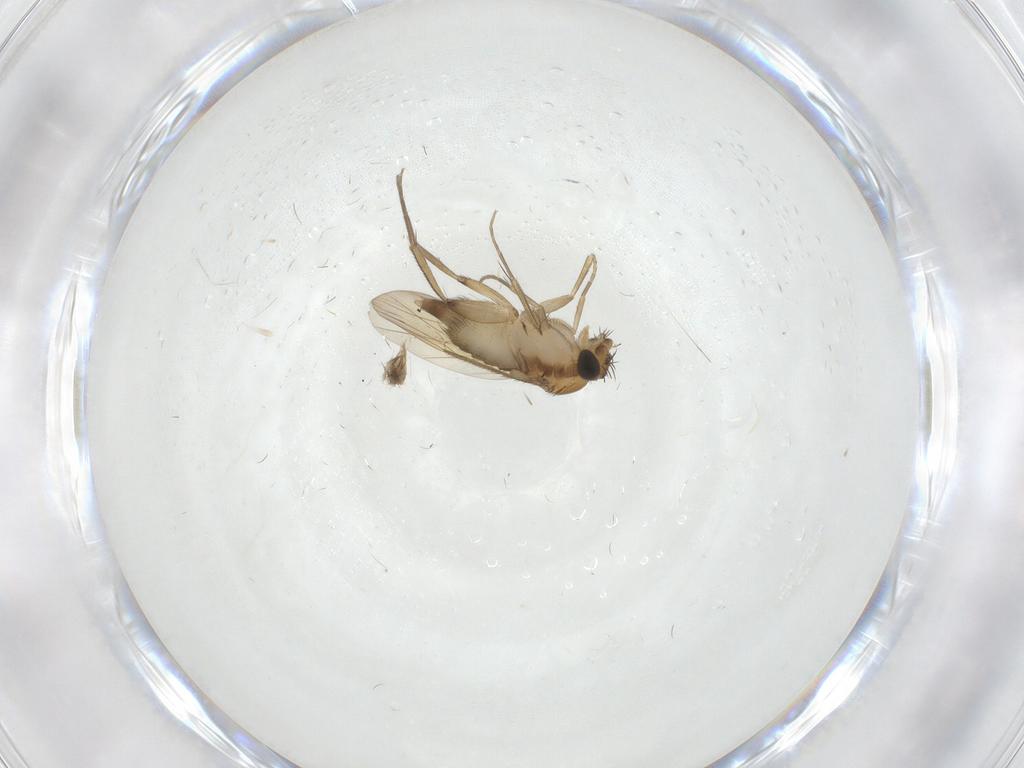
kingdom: Animalia
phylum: Arthropoda
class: Insecta
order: Diptera
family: Phoridae
